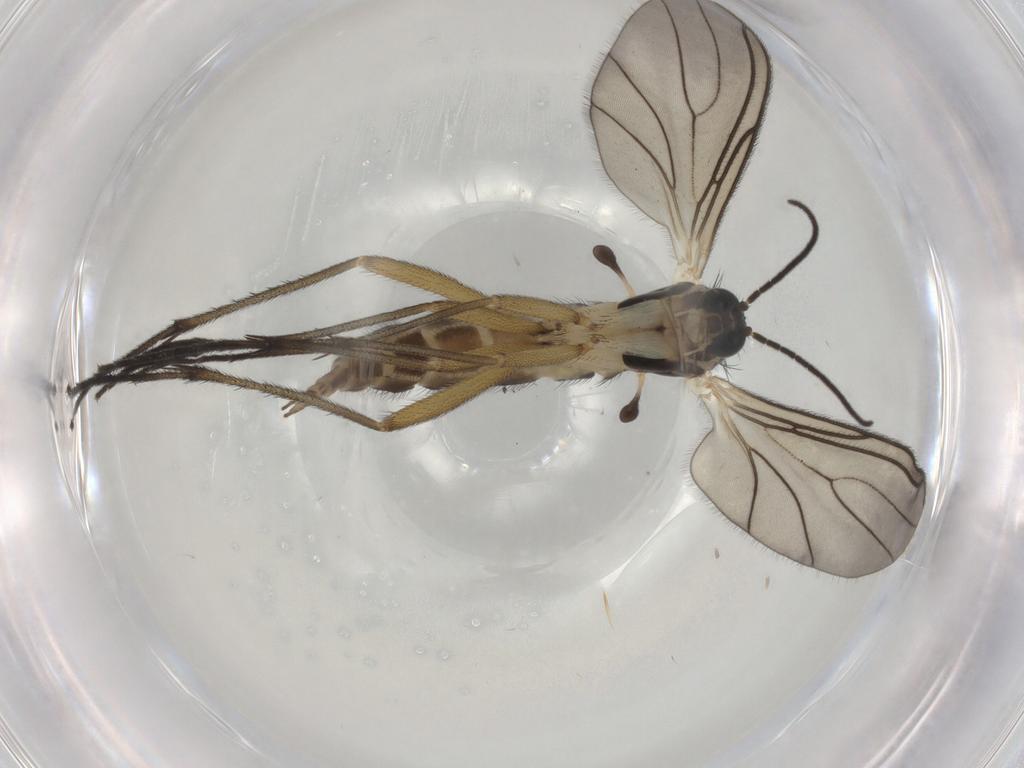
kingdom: Animalia
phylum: Arthropoda
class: Insecta
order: Diptera
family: Sciaridae
